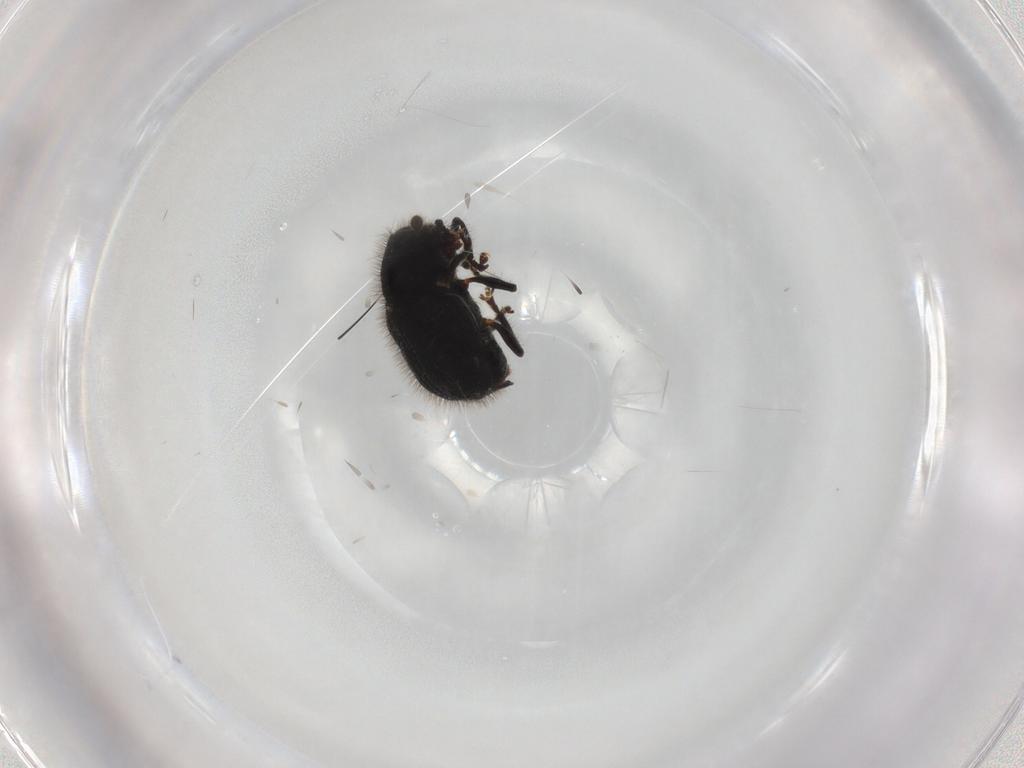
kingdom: Animalia
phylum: Arthropoda
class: Insecta
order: Coleoptera
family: Anthribidae
